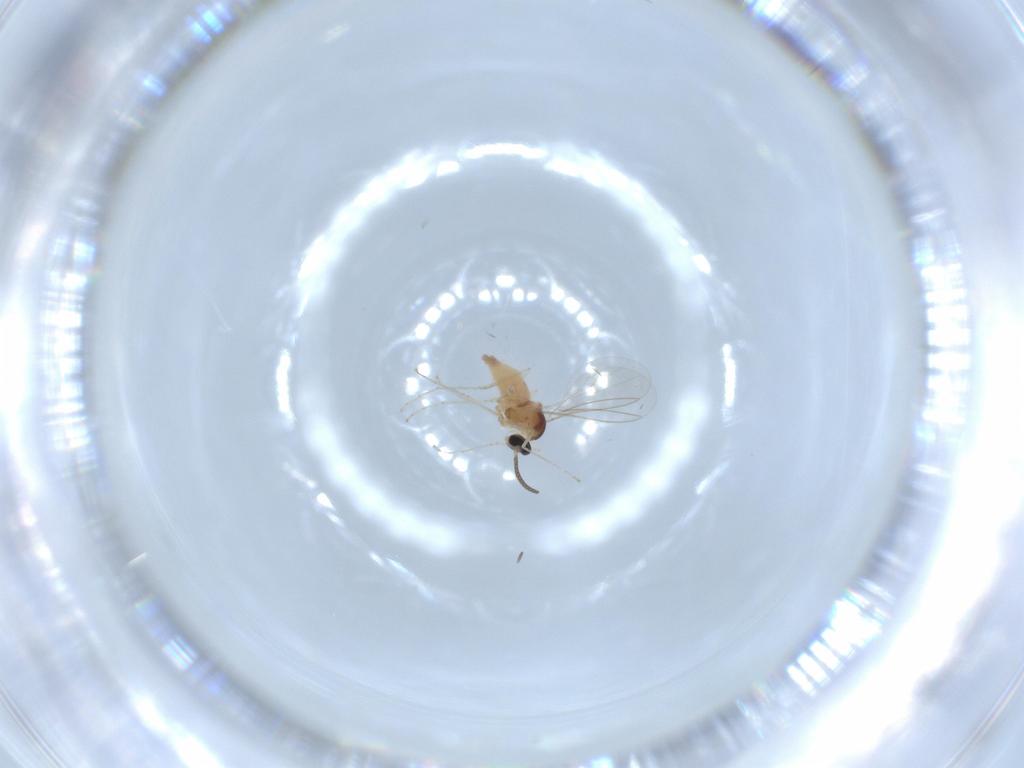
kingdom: Animalia
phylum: Arthropoda
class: Insecta
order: Diptera
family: Cecidomyiidae
